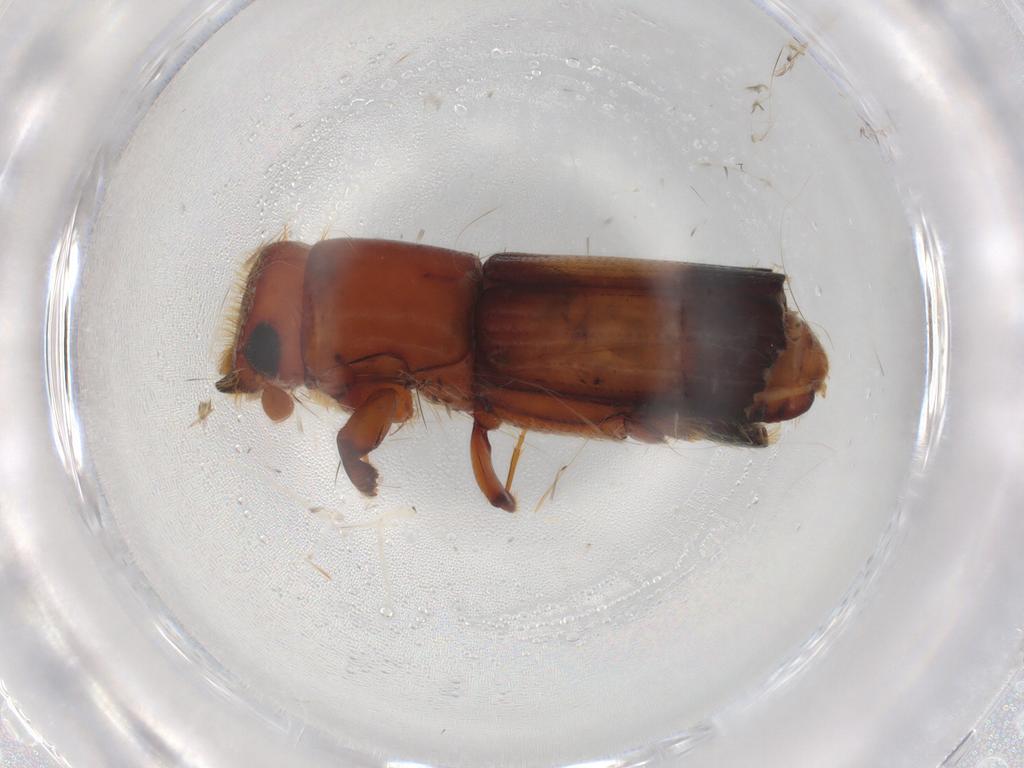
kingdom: Animalia
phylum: Arthropoda
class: Insecta
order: Coleoptera
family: Curculionidae
